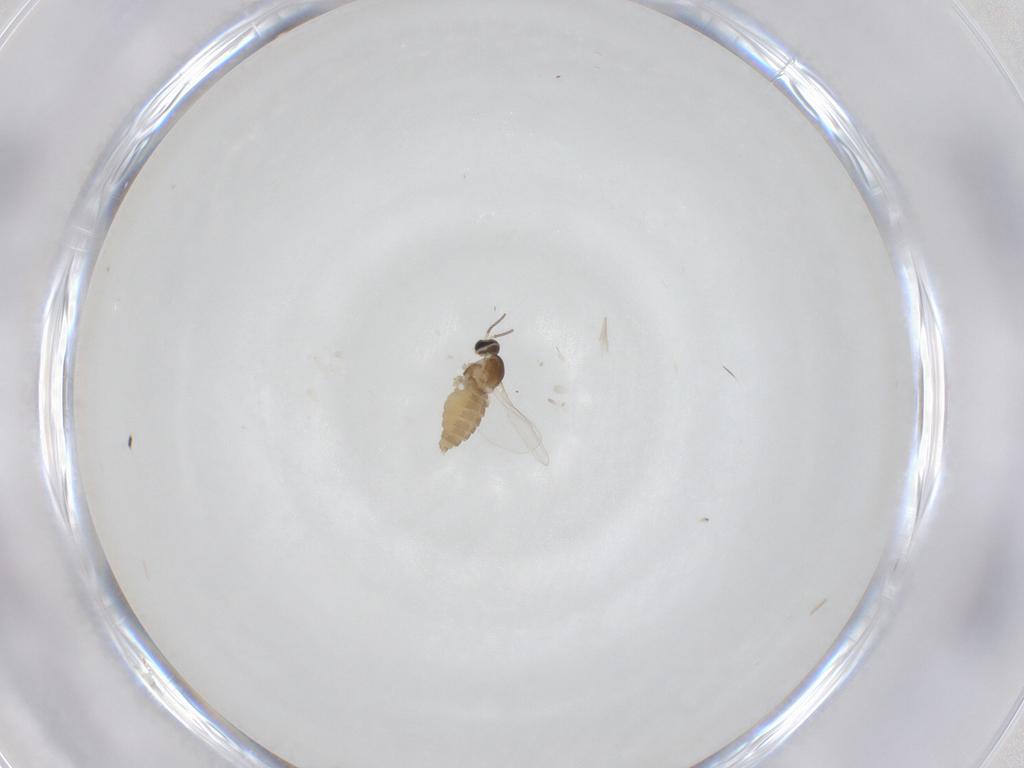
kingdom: Animalia
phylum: Arthropoda
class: Insecta
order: Diptera
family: Cecidomyiidae
